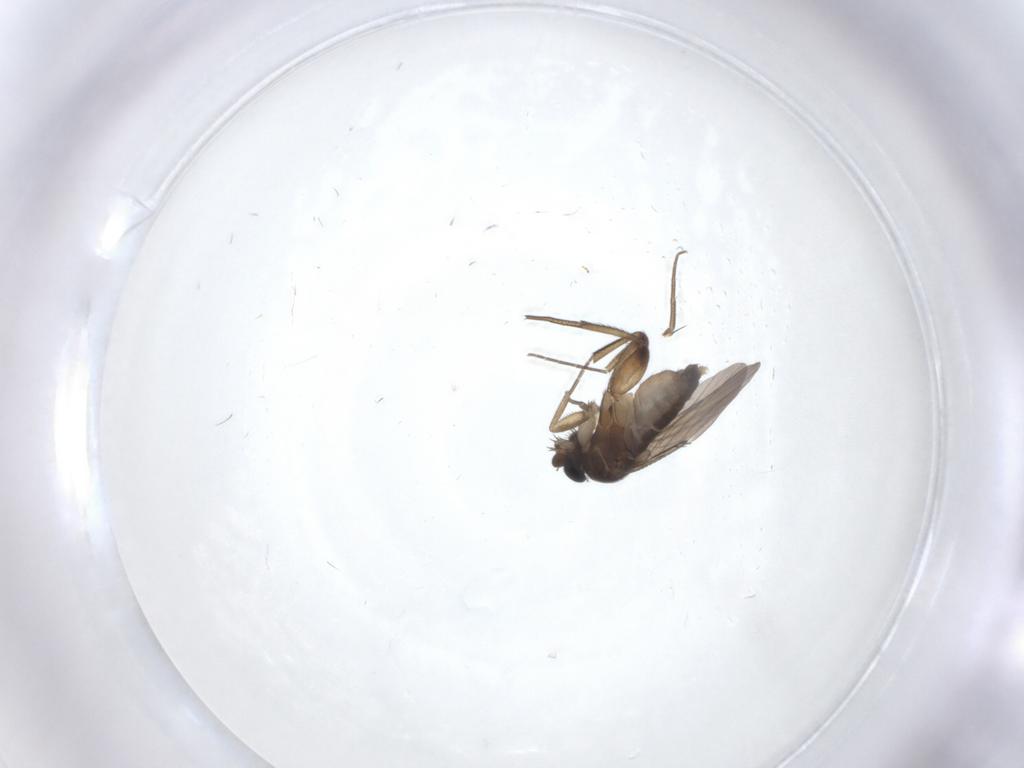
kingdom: Animalia
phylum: Arthropoda
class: Insecta
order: Diptera
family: Phoridae
